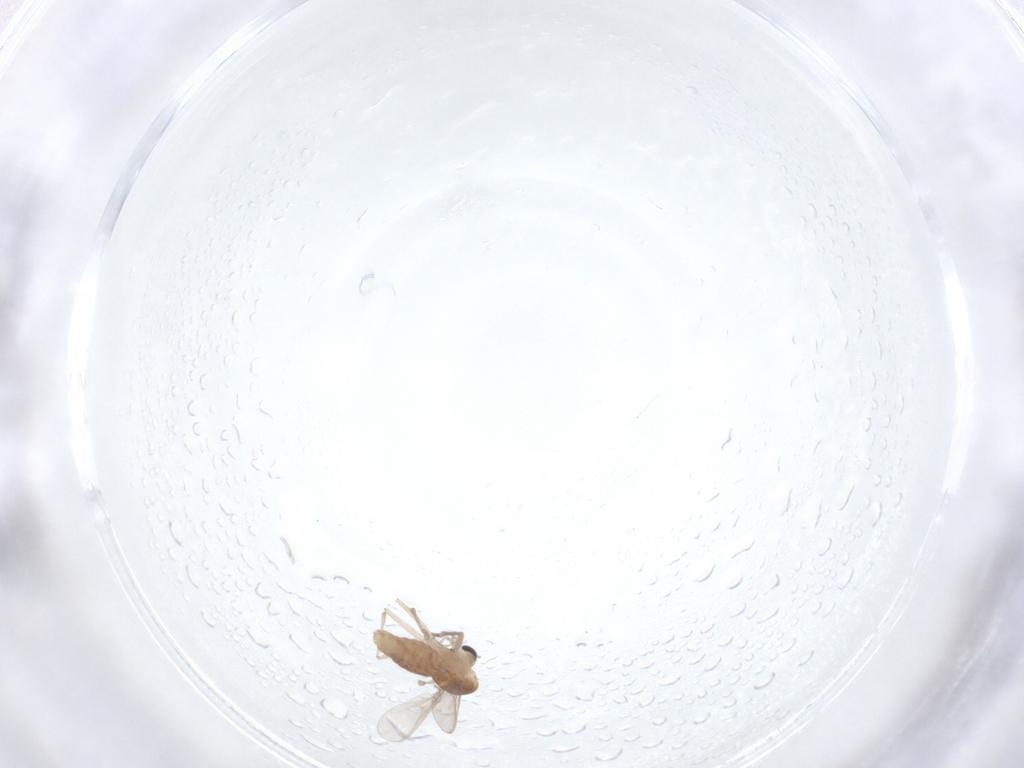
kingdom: Animalia
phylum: Arthropoda
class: Insecta
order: Diptera
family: Chironomidae
